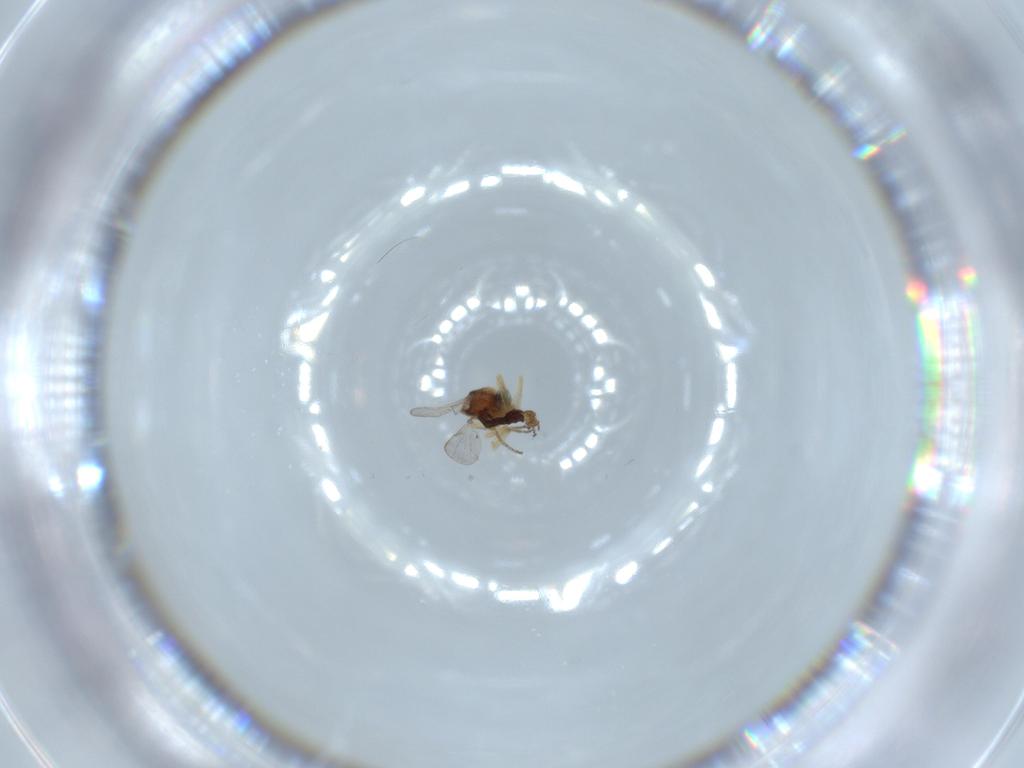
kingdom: Animalia
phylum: Arthropoda
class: Insecta
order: Diptera
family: Ceratopogonidae
